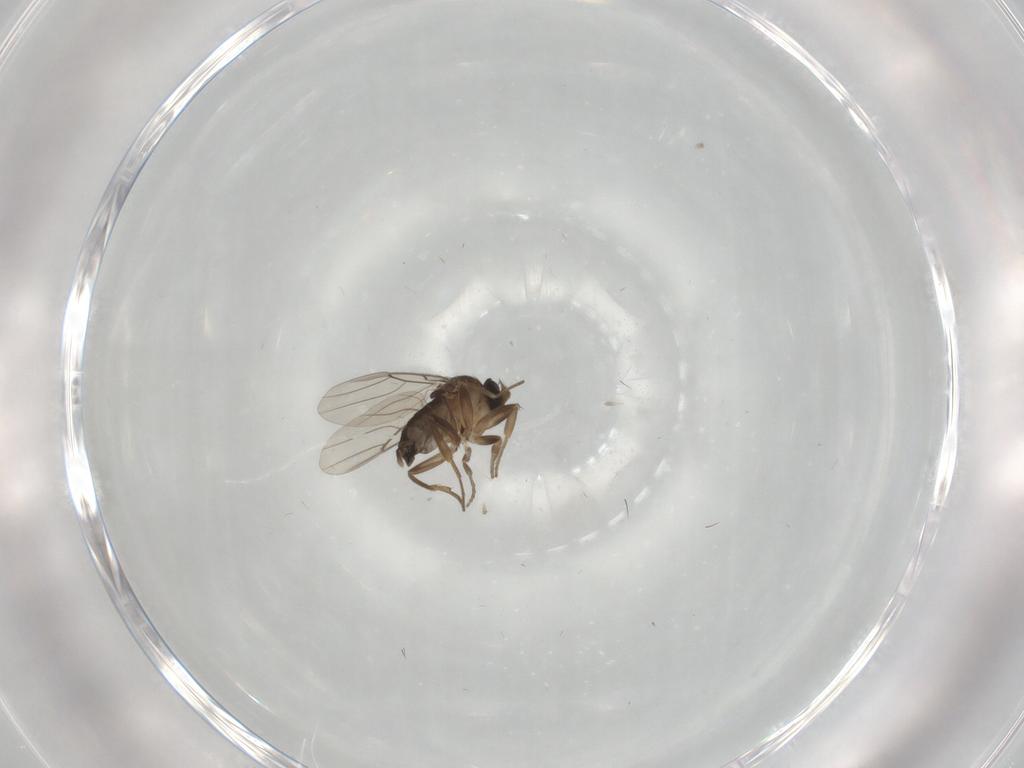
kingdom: Animalia
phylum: Arthropoda
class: Insecta
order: Diptera
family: Phoridae
